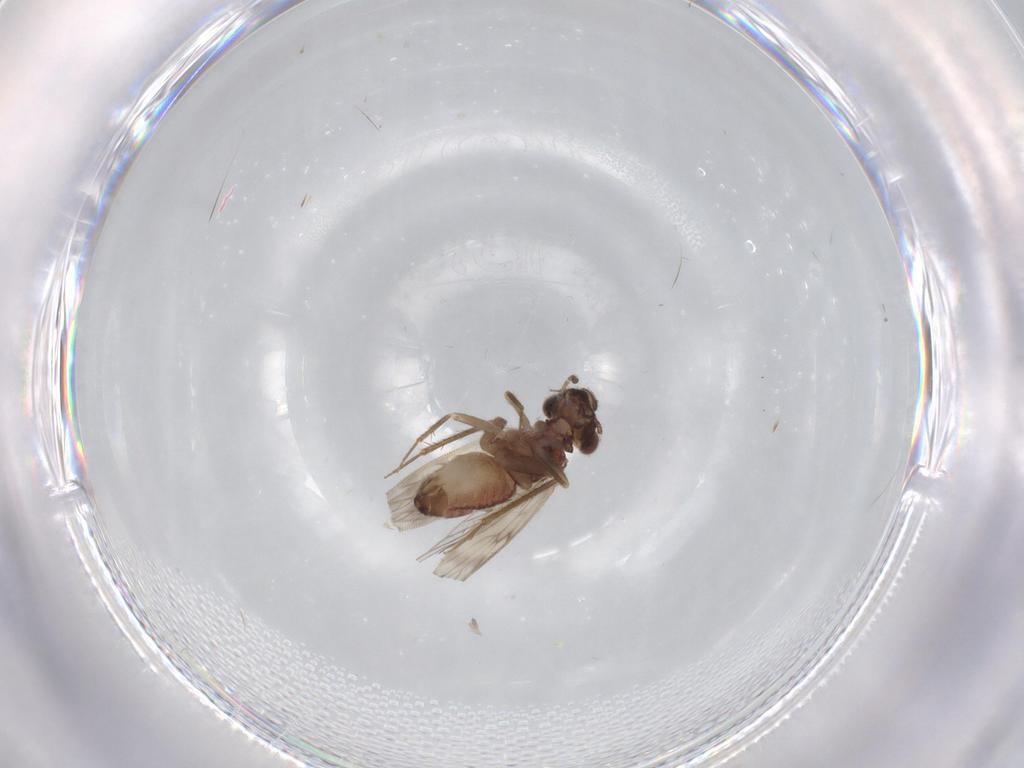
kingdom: Animalia
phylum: Arthropoda
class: Insecta
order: Psocodea
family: Lepidopsocidae
